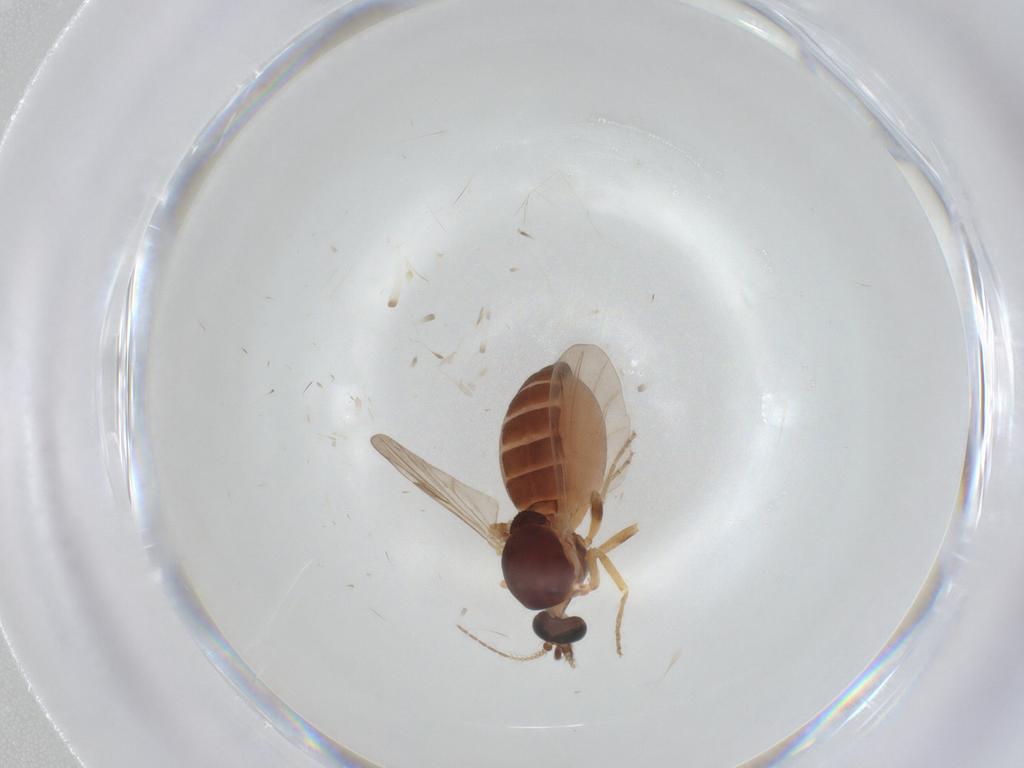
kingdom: Animalia
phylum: Arthropoda
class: Insecta
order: Diptera
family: Ceratopogonidae
